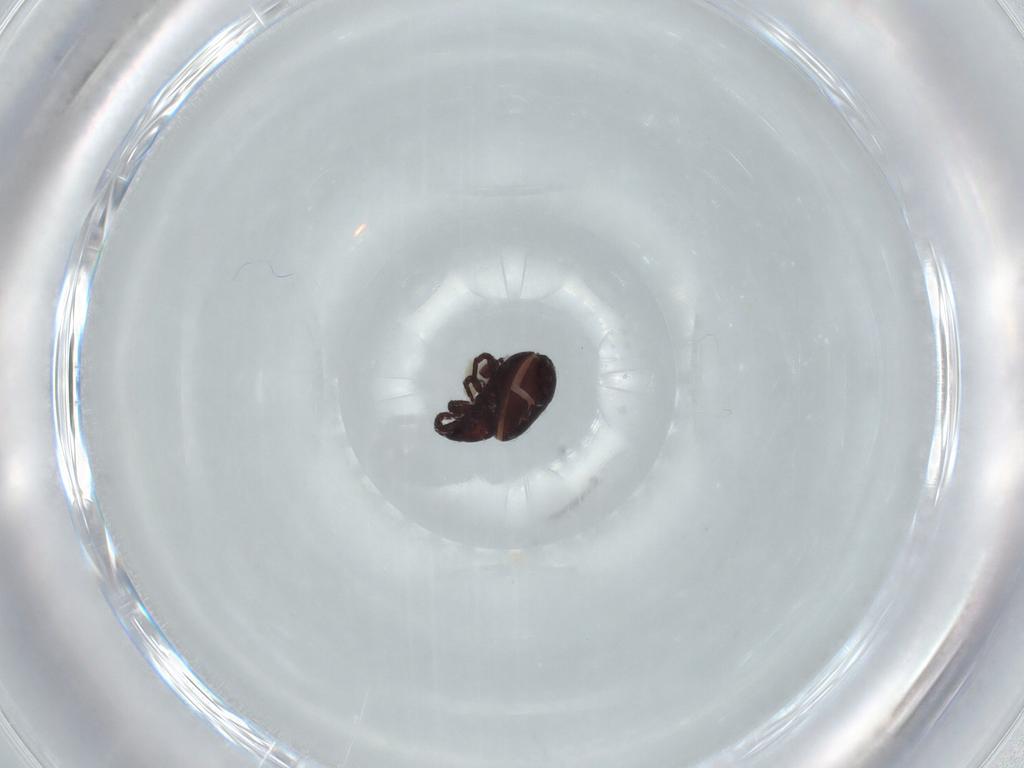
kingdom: Animalia
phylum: Arthropoda
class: Arachnida
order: Sarcoptiformes
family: Hermanniidae
